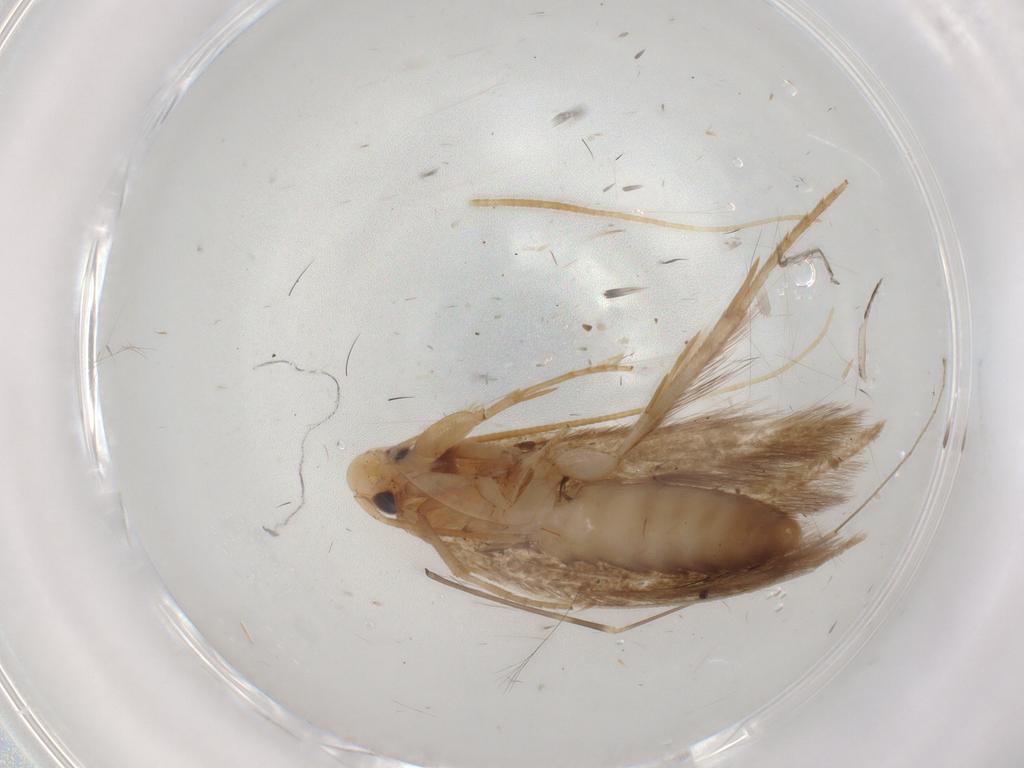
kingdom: Animalia
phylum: Arthropoda
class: Insecta
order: Lepidoptera
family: Tineidae
